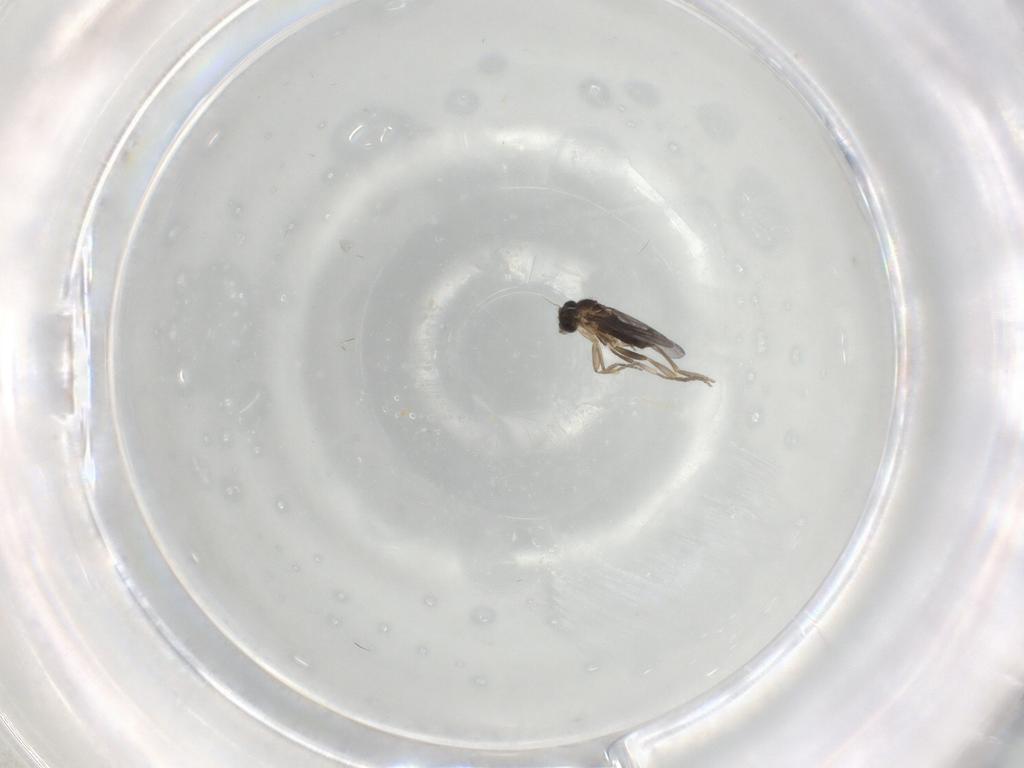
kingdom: Animalia
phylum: Arthropoda
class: Insecta
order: Diptera
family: Cecidomyiidae
